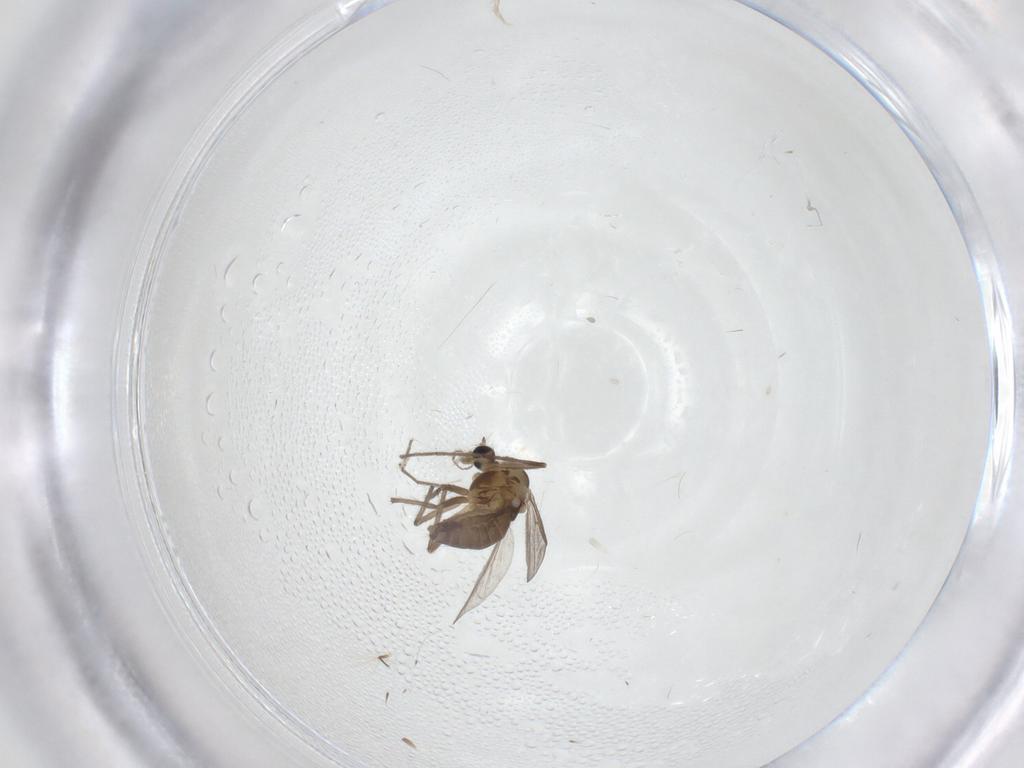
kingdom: Animalia
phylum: Arthropoda
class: Insecta
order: Diptera
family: Chironomidae
